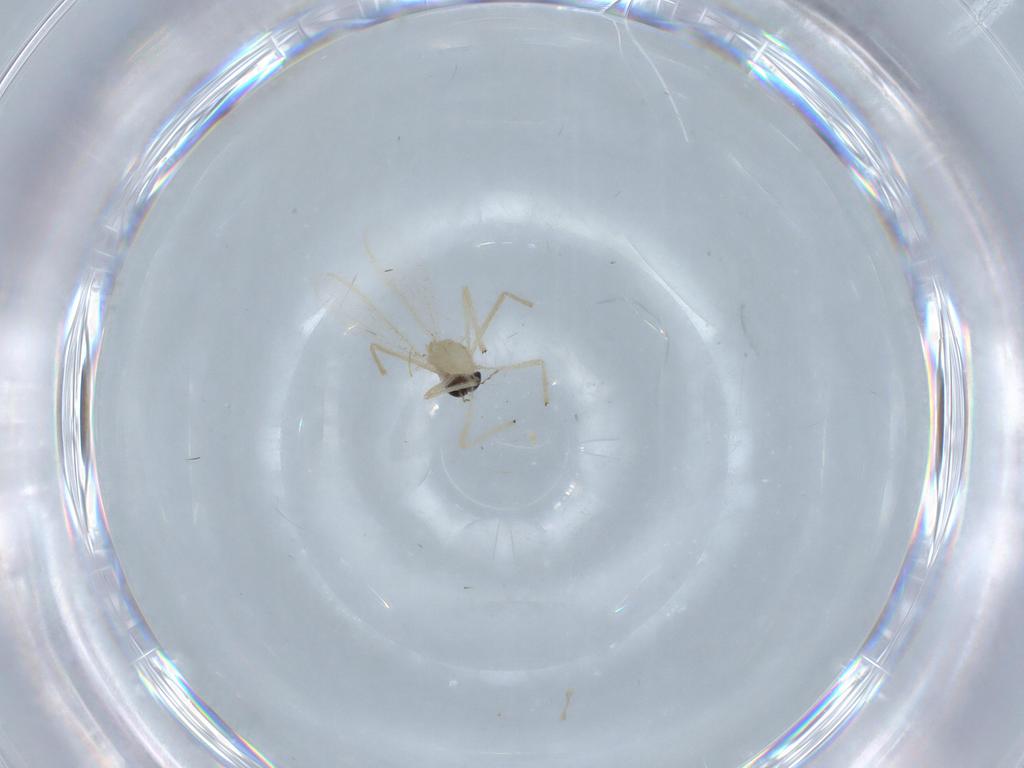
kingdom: Animalia
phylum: Arthropoda
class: Insecta
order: Diptera
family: Chironomidae
